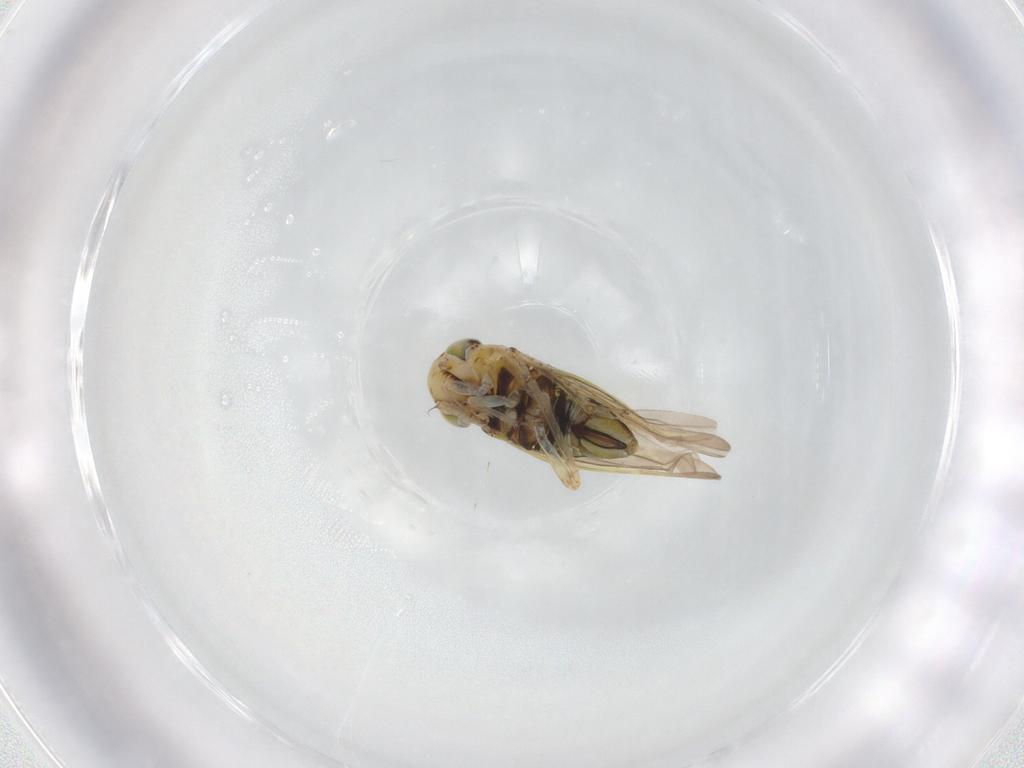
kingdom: Animalia
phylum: Arthropoda
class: Insecta
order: Hemiptera
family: Cicadellidae
